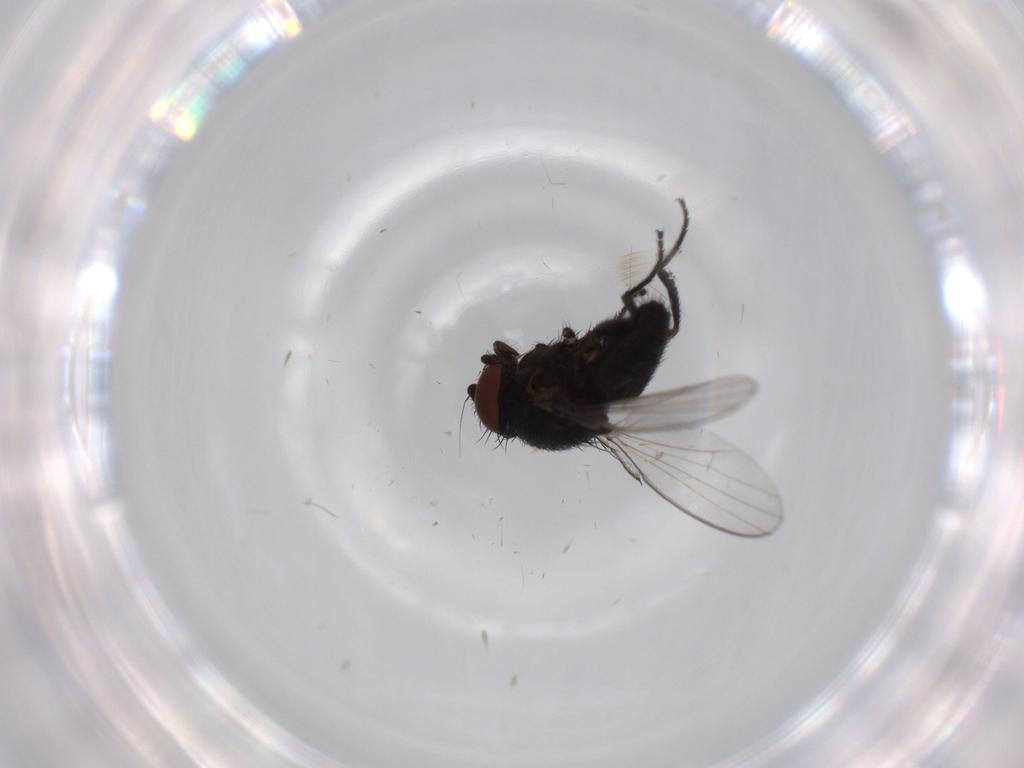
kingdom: Animalia
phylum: Arthropoda
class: Insecta
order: Diptera
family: Milichiidae
